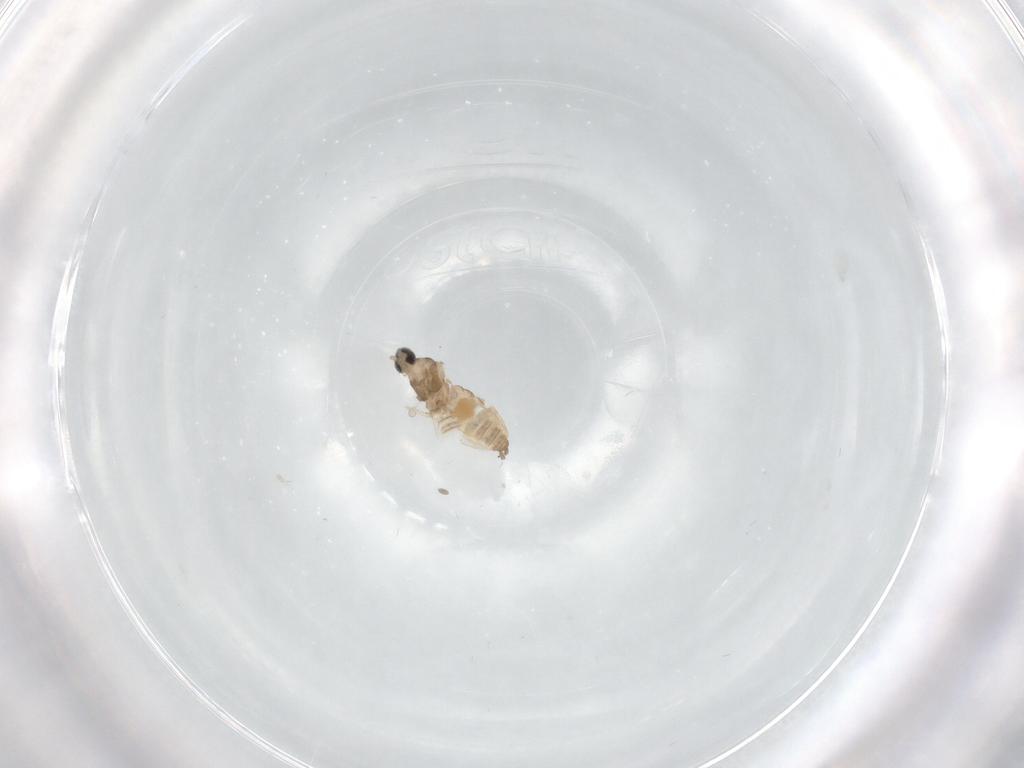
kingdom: Animalia
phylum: Arthropoda
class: Insecta
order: Diptera
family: Cecidomyiidae
